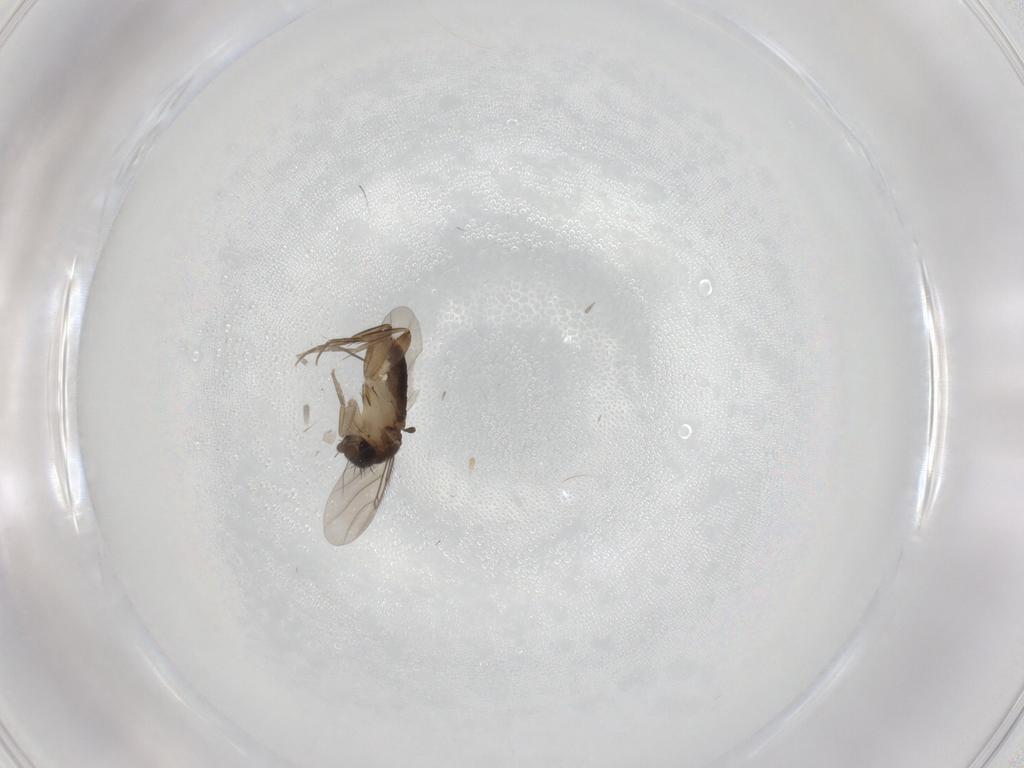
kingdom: Animalia
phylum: Arthropoda
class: Insecta
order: Diptera
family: Phoridae
